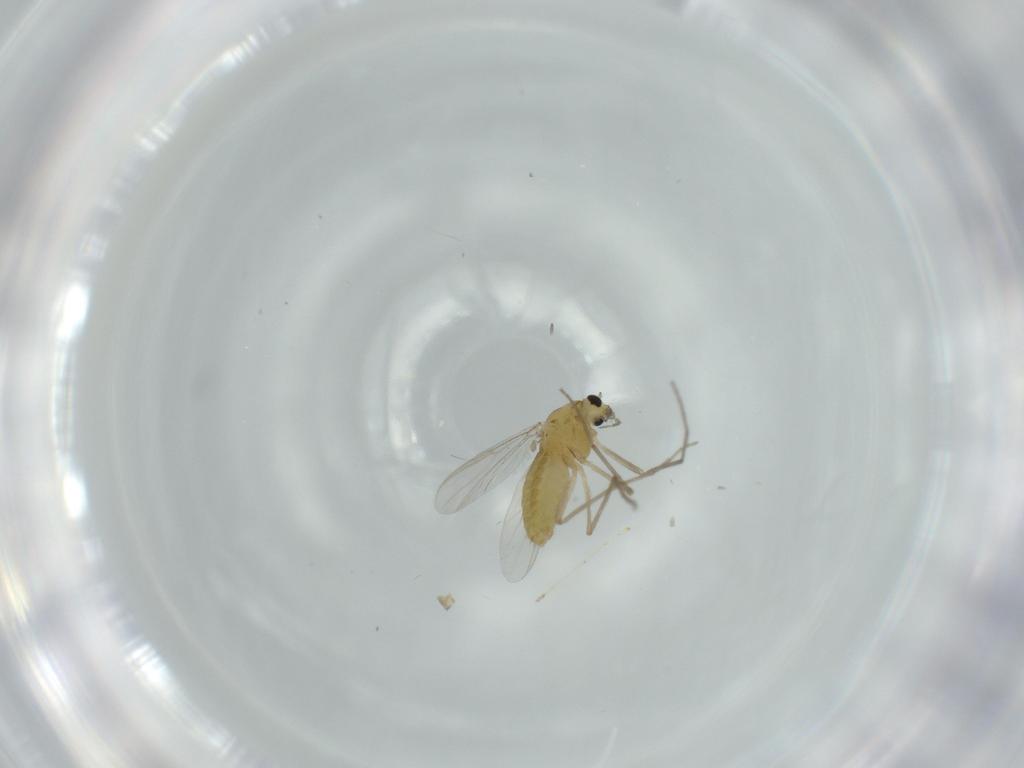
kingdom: Animalia
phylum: Arthropoda
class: Insecta
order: Diptera
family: Chironomidae
